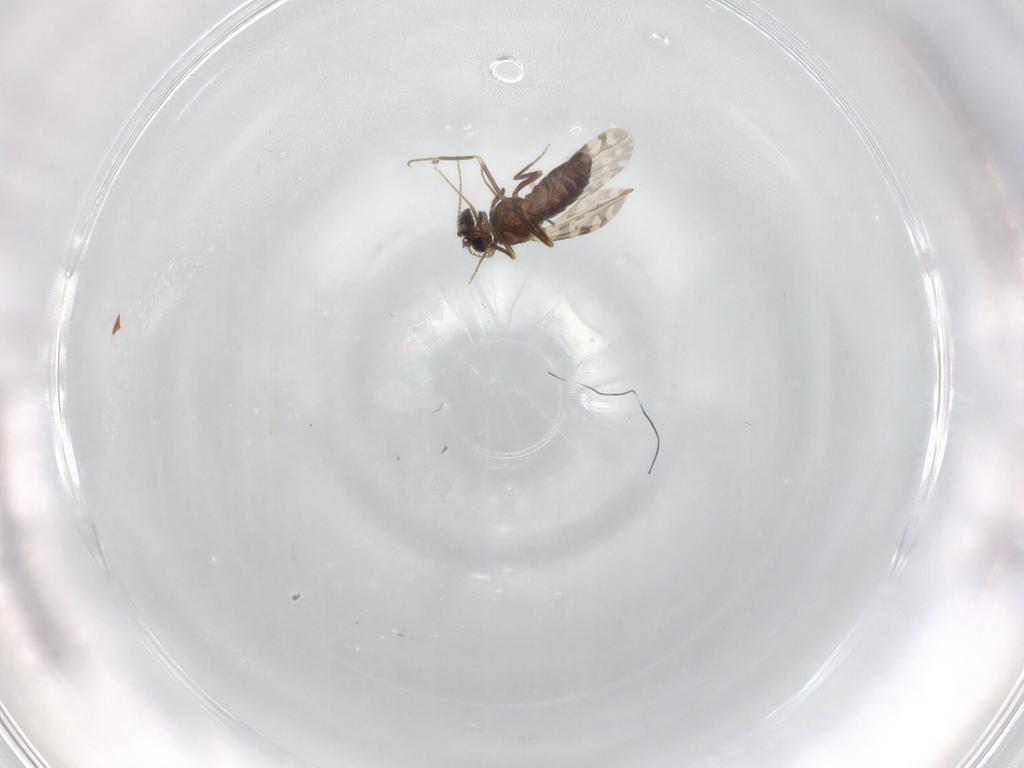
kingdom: Animalia
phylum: Arthropoda
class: Insecta
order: Diptera
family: Ceratopogonidae
